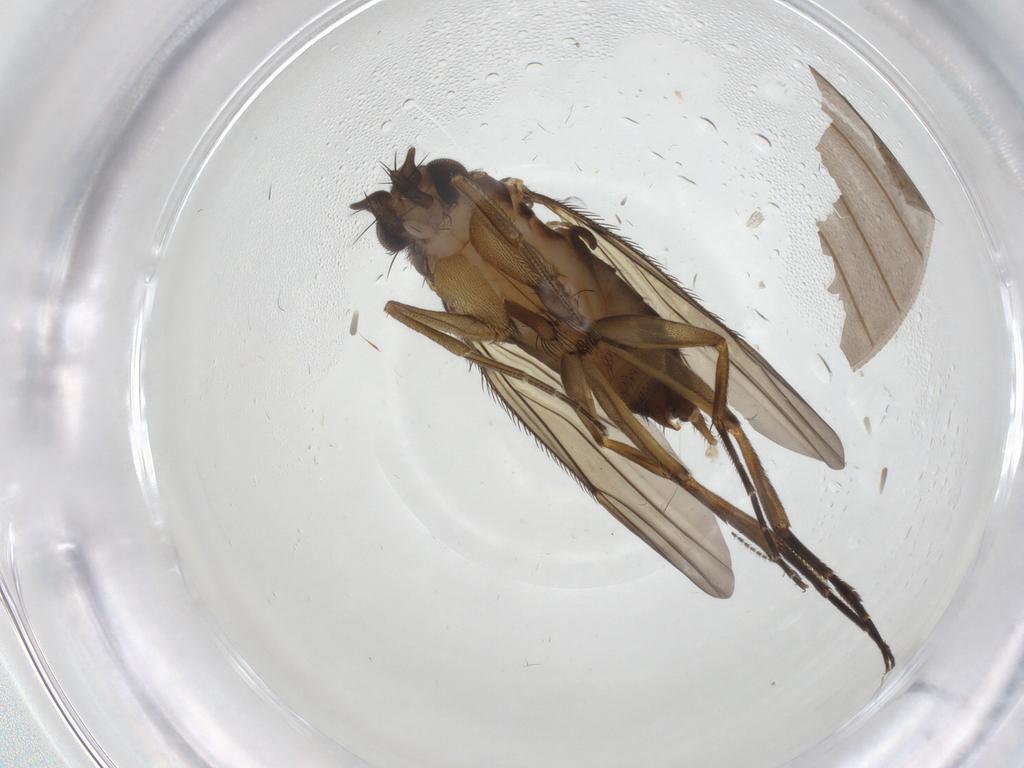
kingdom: Animalia
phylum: Arthropoda
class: Insecta
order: Diptera
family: Phoridae
